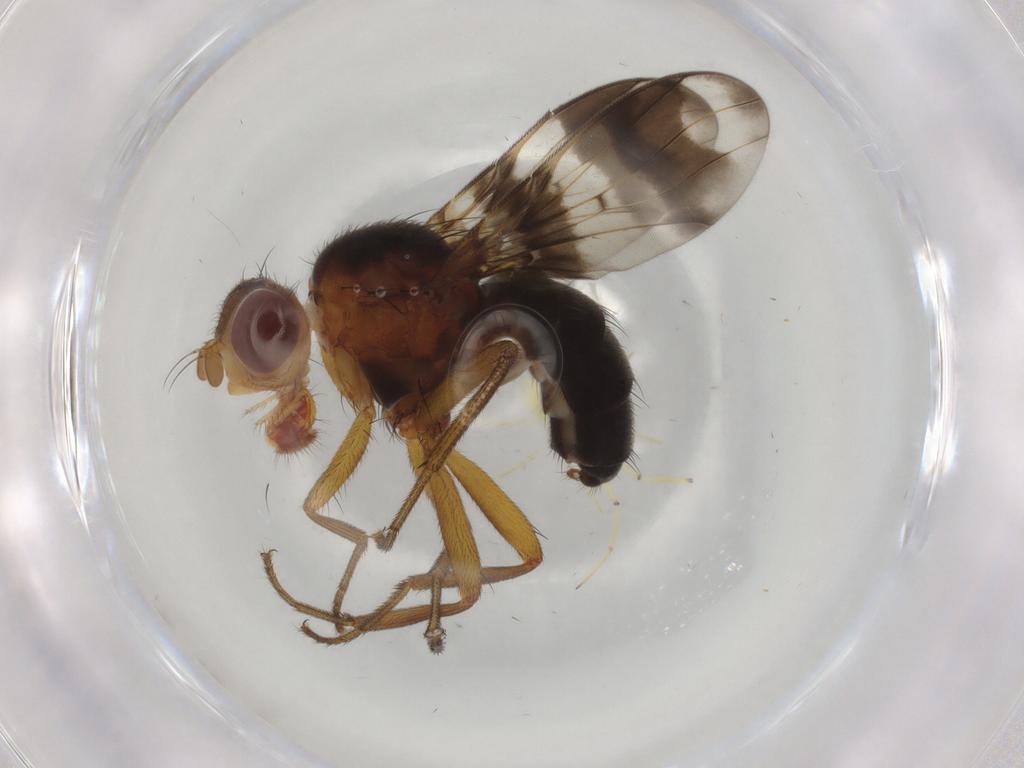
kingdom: Animalia
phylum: Arthropoda
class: Insecta
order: Diptera
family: Richardiidae
